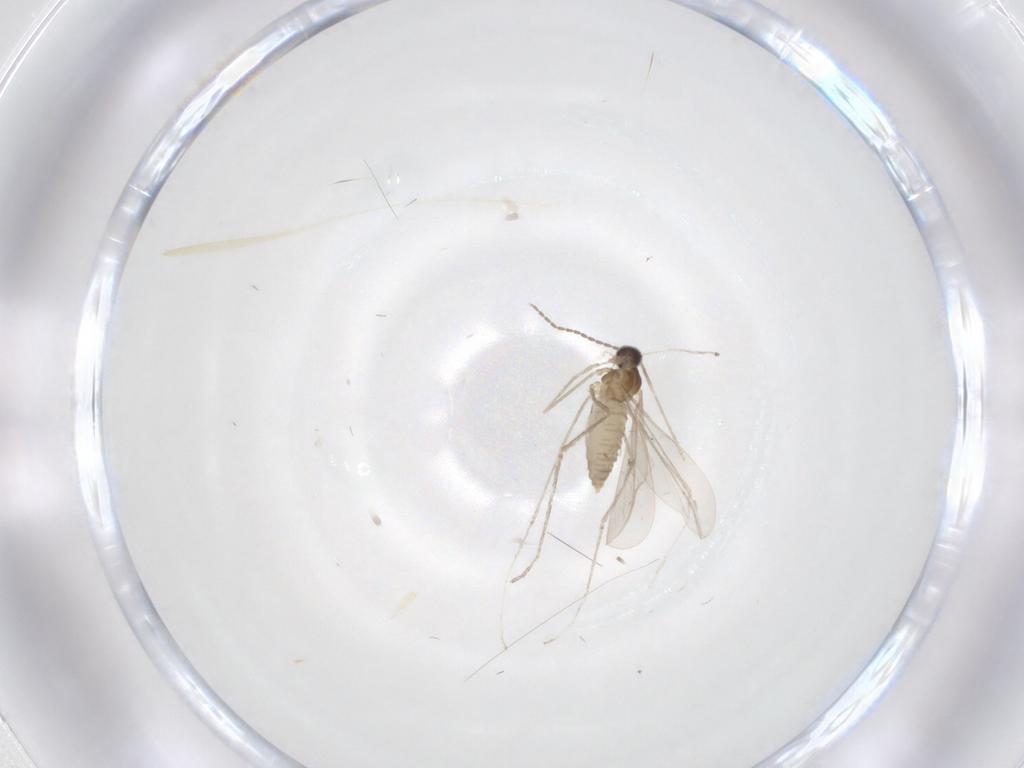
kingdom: Animalia
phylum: Arthropoda
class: Insecta
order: Diptera
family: Cecidomyiidae
